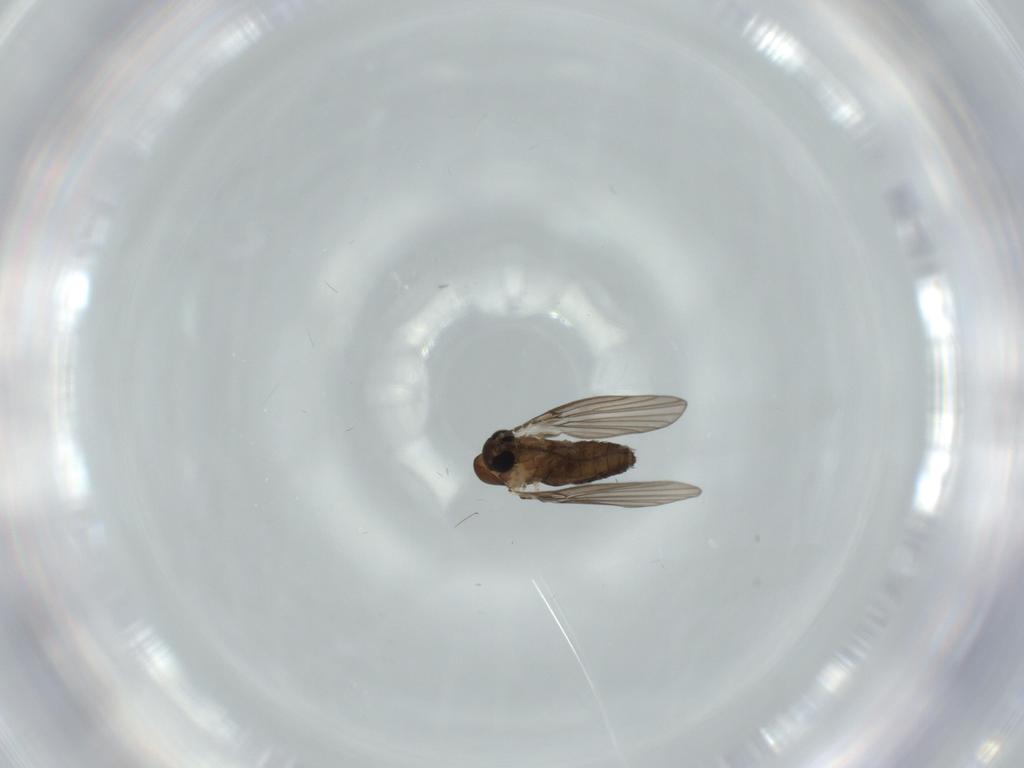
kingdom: Animalia
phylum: Arthropoda
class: Insecta
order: Diptera
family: Psychodidae
